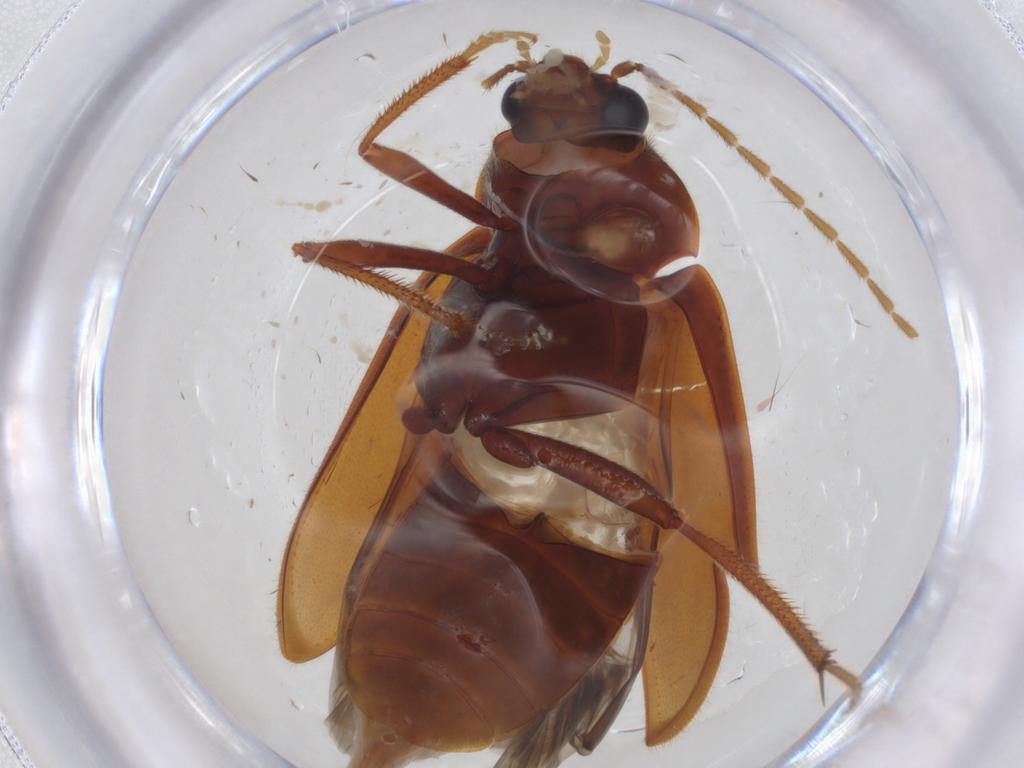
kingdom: Animalia
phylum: Arthropoda
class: Insecta
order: Coleoptera
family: Ptilodactylidae
